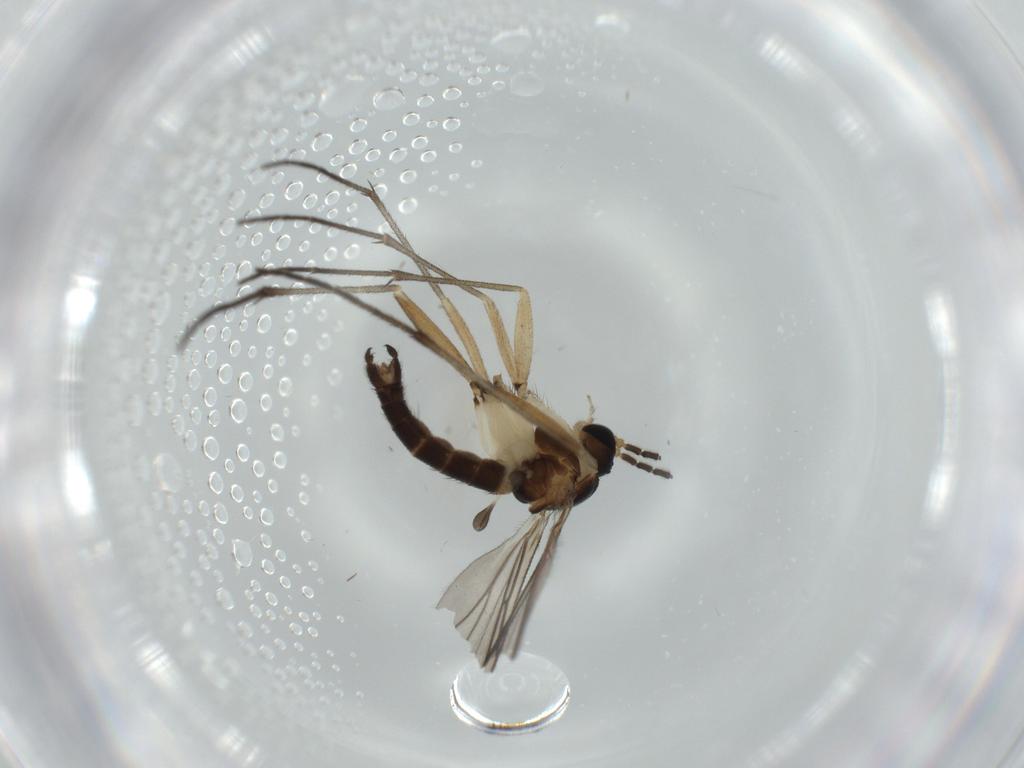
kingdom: Animalia
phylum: Arthropoda
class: Insecta
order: Diptera
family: Sciaridae
